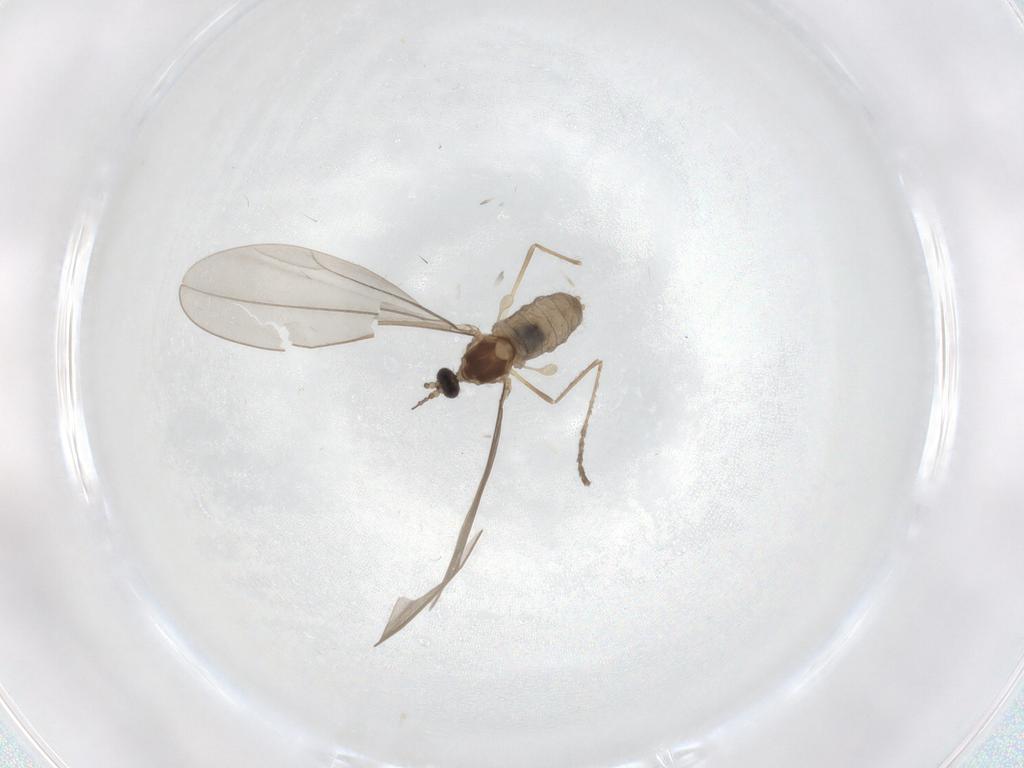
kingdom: Animalia
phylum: Arthropoda
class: Insecta
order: Diptera
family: Cecidomyiidae
